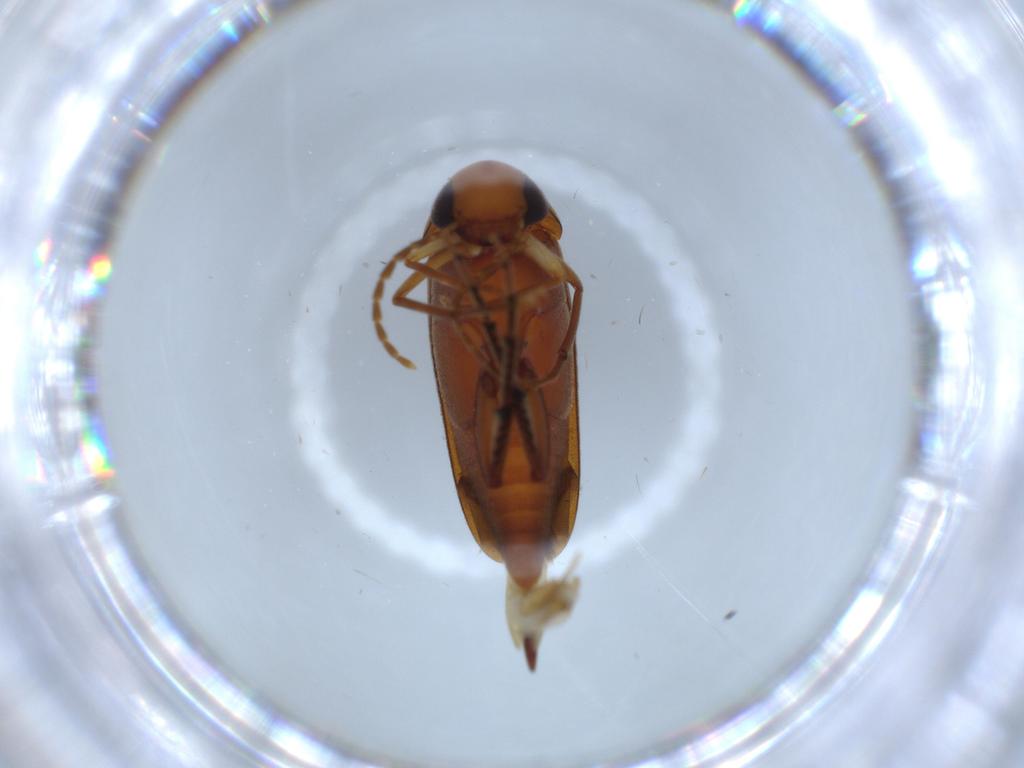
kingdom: Animalia
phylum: Arthropoda
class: Insecta
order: Coleoptera
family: Mordellidae
